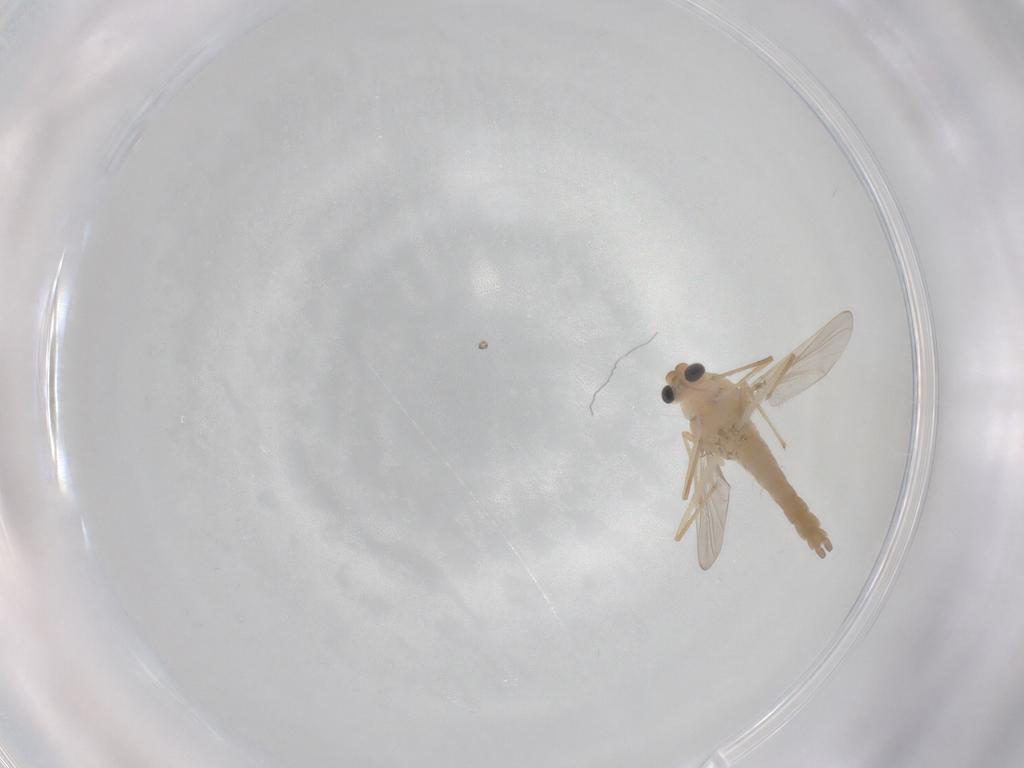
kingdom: Animalia
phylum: Arthropoda
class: Insecta
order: Diptera
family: Chironomidae
